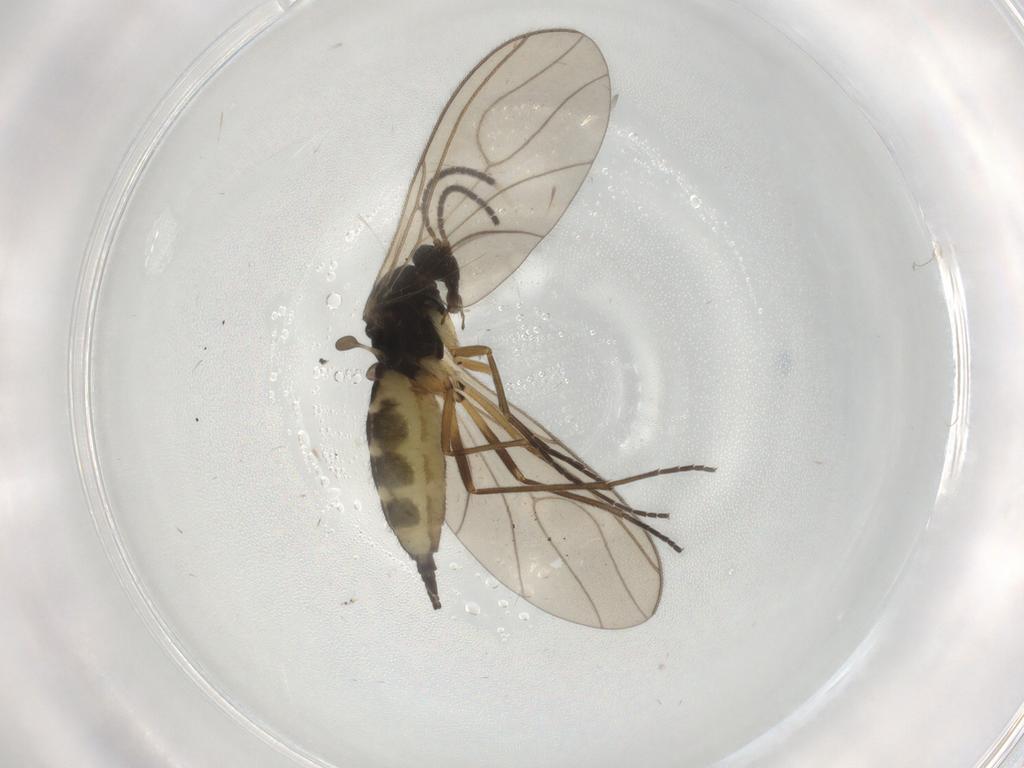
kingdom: Animalia
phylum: Arthropoda
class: Insecta
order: Diptera
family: Sciaridae
